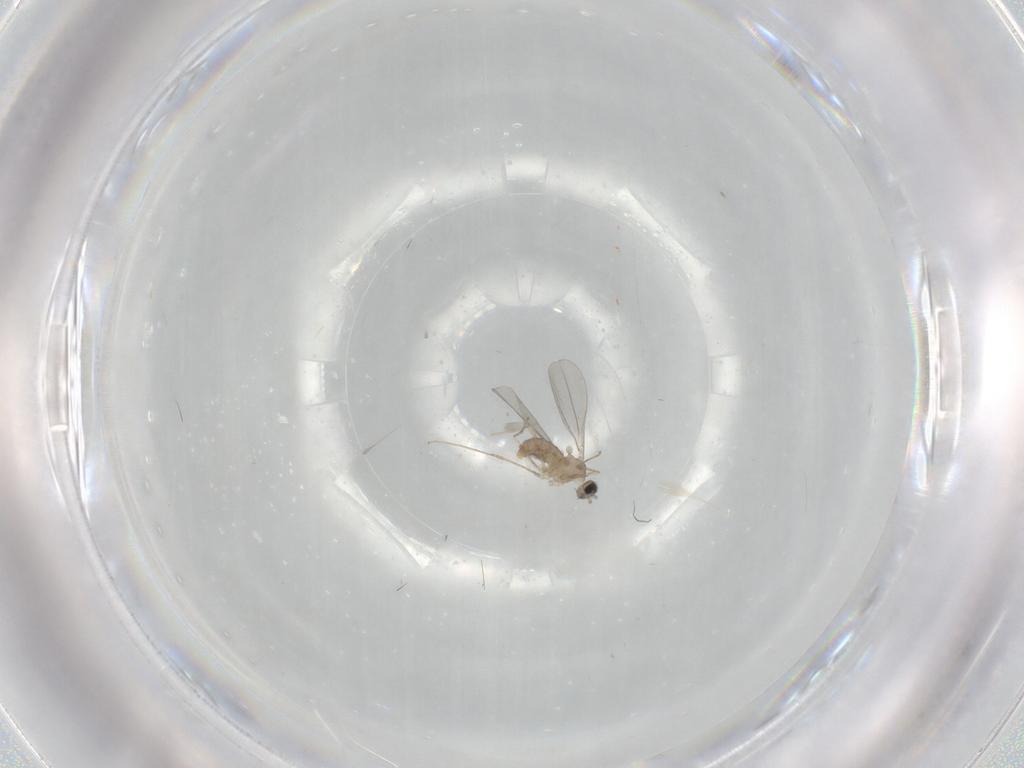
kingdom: Animalia
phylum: Arthropoda
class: Insecta
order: Diptera
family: Cecidomyiidae
